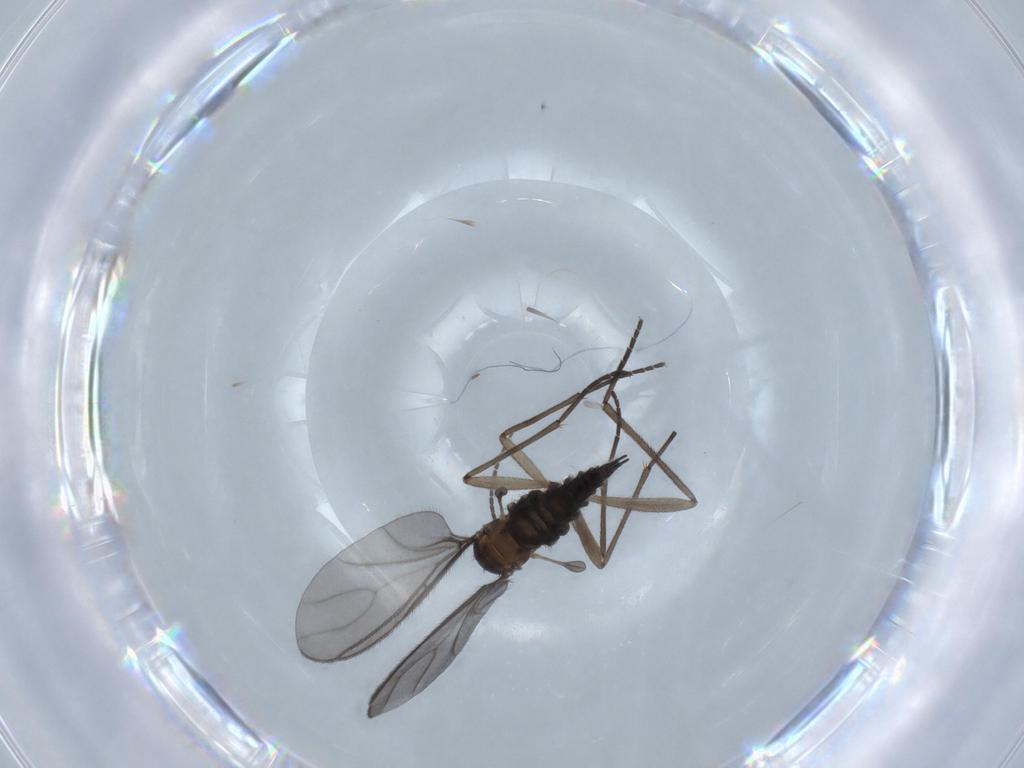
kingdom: Animalia
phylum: Arthropoda
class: Insecta
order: Diptera
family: Sciaridae
